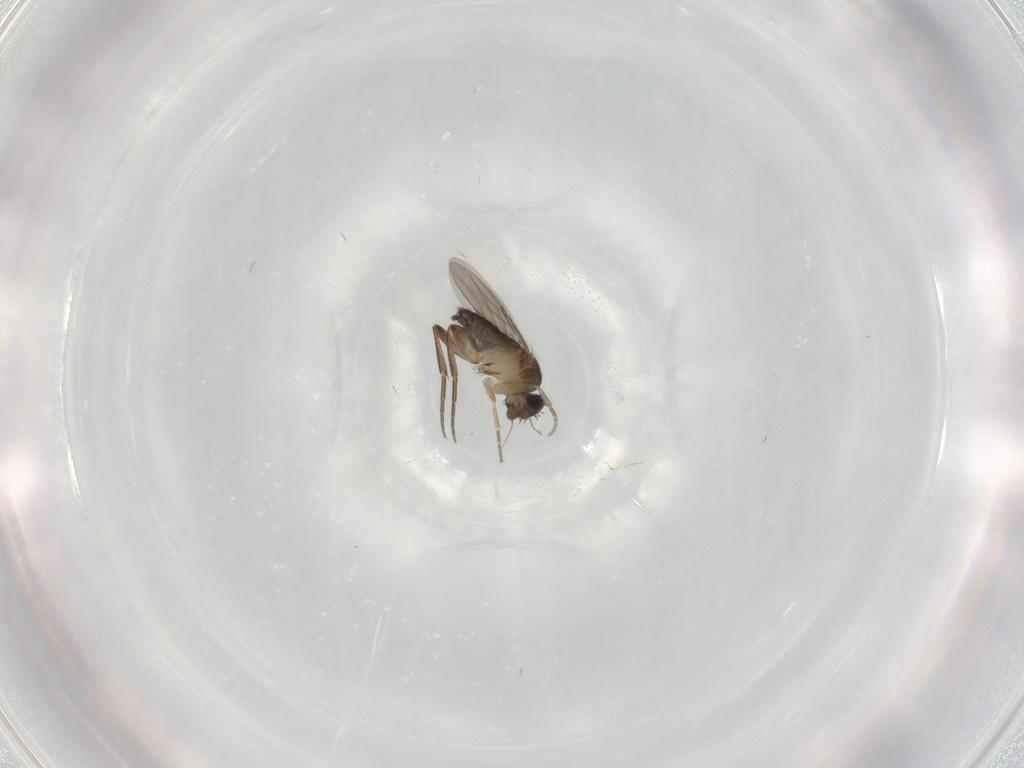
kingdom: Animalia
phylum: Arthropoda
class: Insecta
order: Diptera
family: Phoridae
